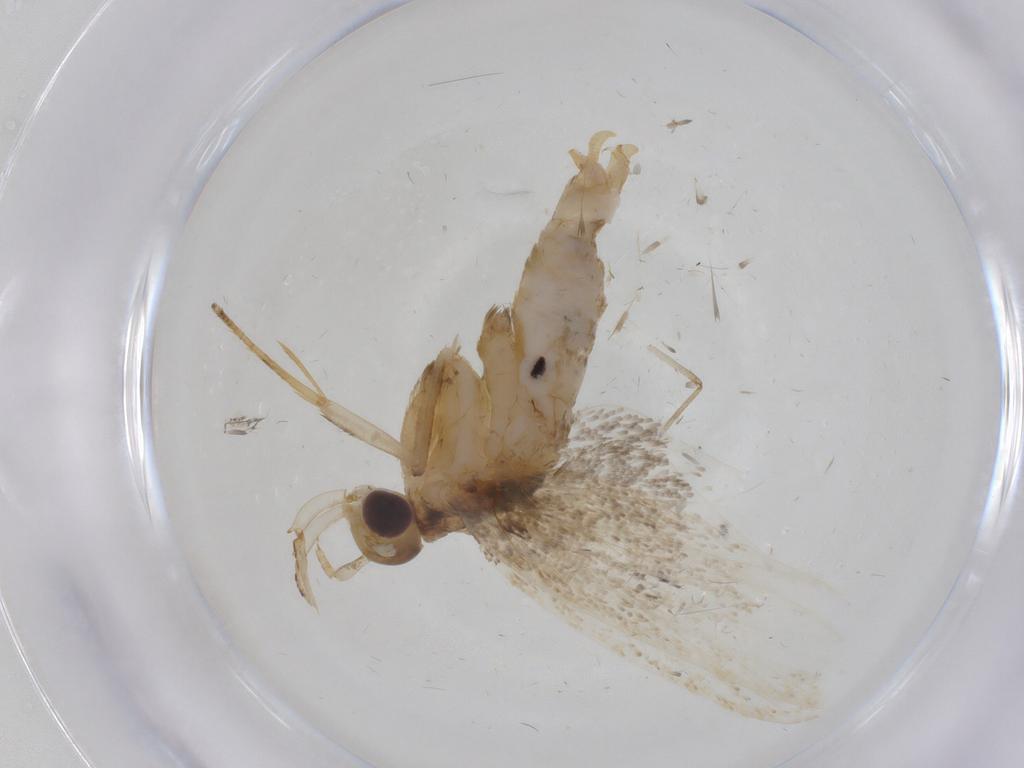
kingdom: Animalia
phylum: Arthropoda
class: Insecta
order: Lepidoptera
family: Lecithoceridae
